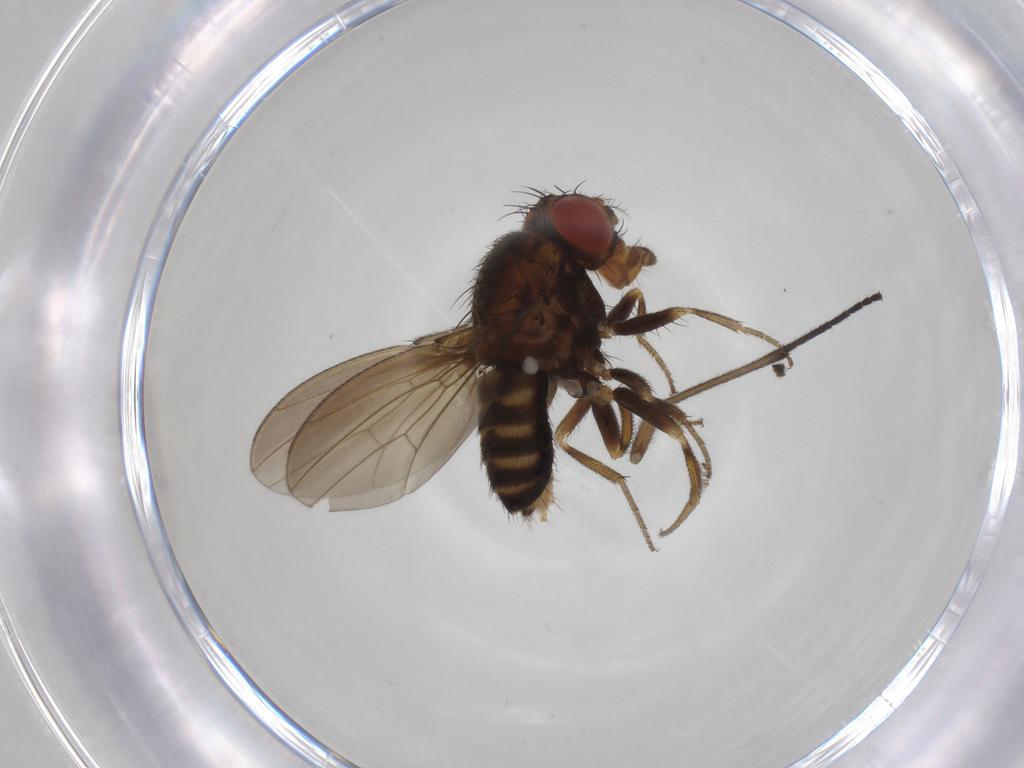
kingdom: Animalia
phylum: Arthropoda
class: Insecta
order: Diptera
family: Drosophilidae
